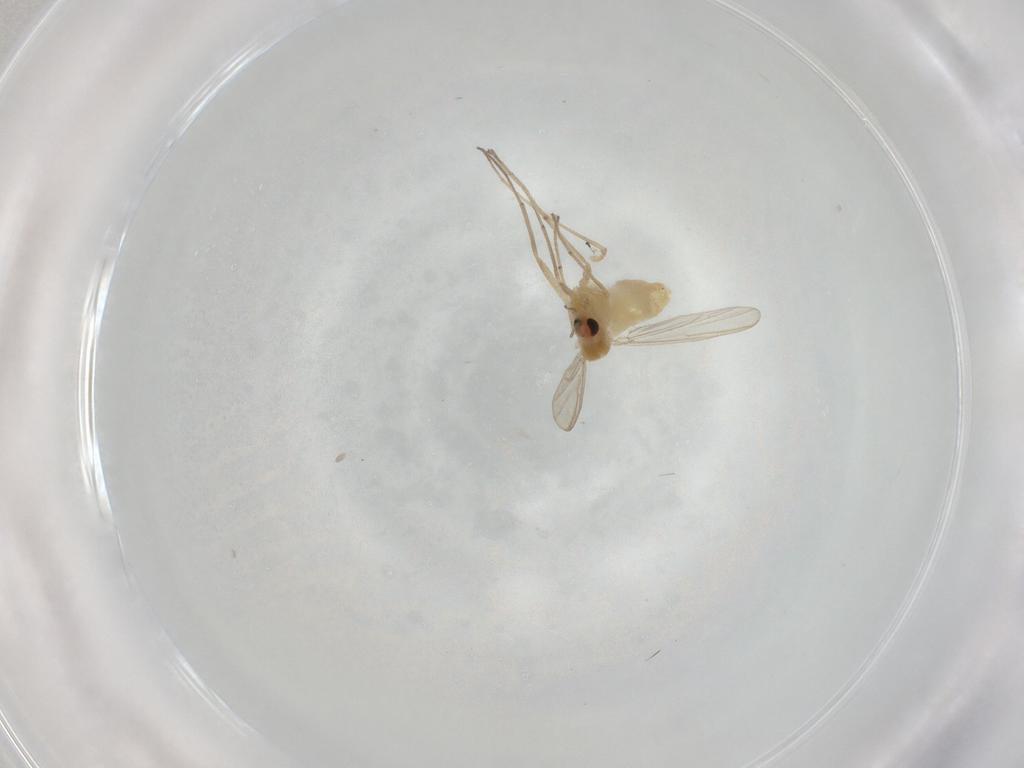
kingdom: Animalia
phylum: Arthropoda
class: Insecta
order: Diptera
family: Chironomidae
